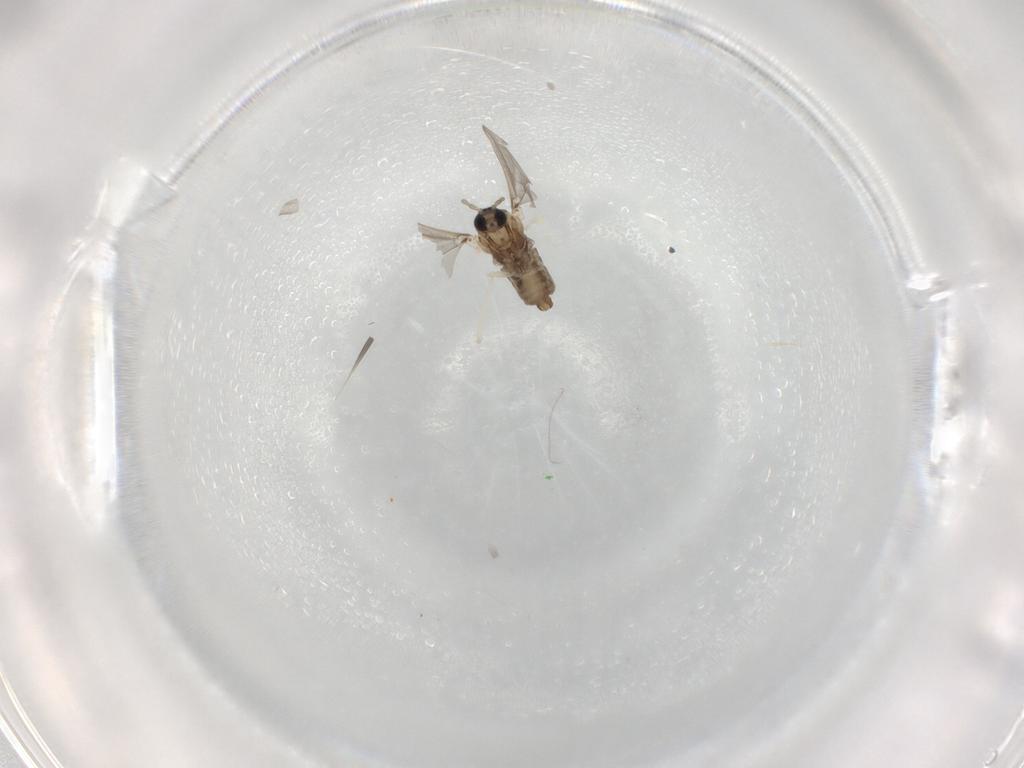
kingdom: Animalia
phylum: Arthropoda
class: Insecta
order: Diptera
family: Cecidomyiidae
